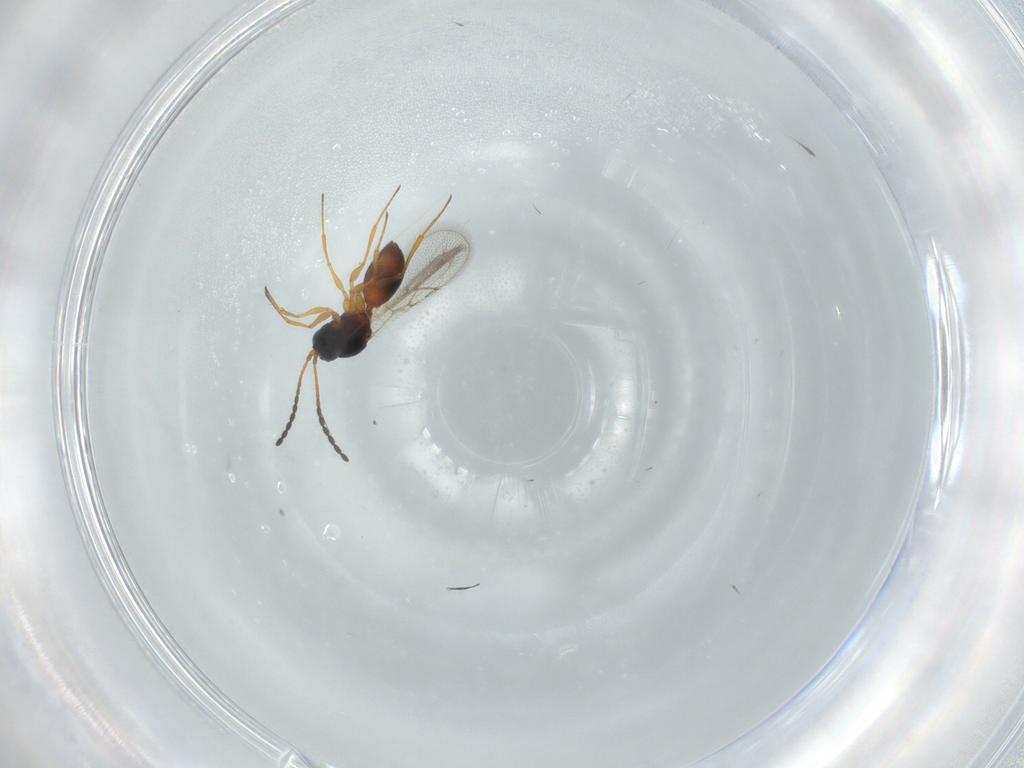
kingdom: Animalia
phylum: Arthropoda
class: Insecta
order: Hymenoptera
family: Figitidae
